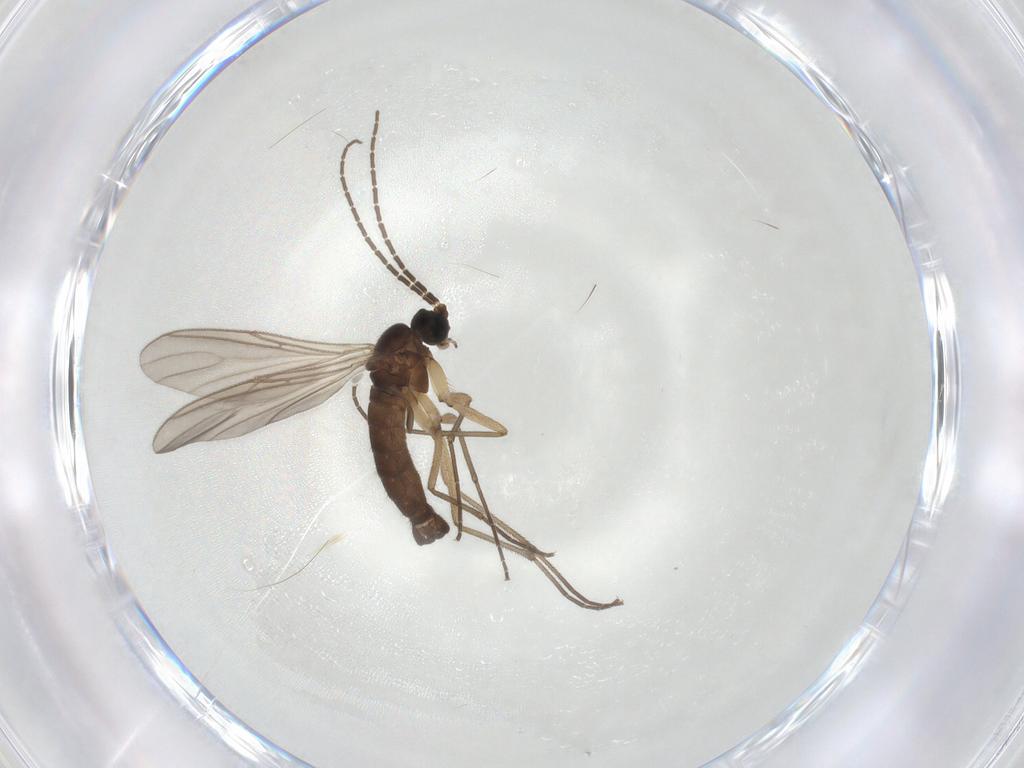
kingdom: Animalia
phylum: Arthropoda
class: Insecta
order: Diptera
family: Sciaridae
